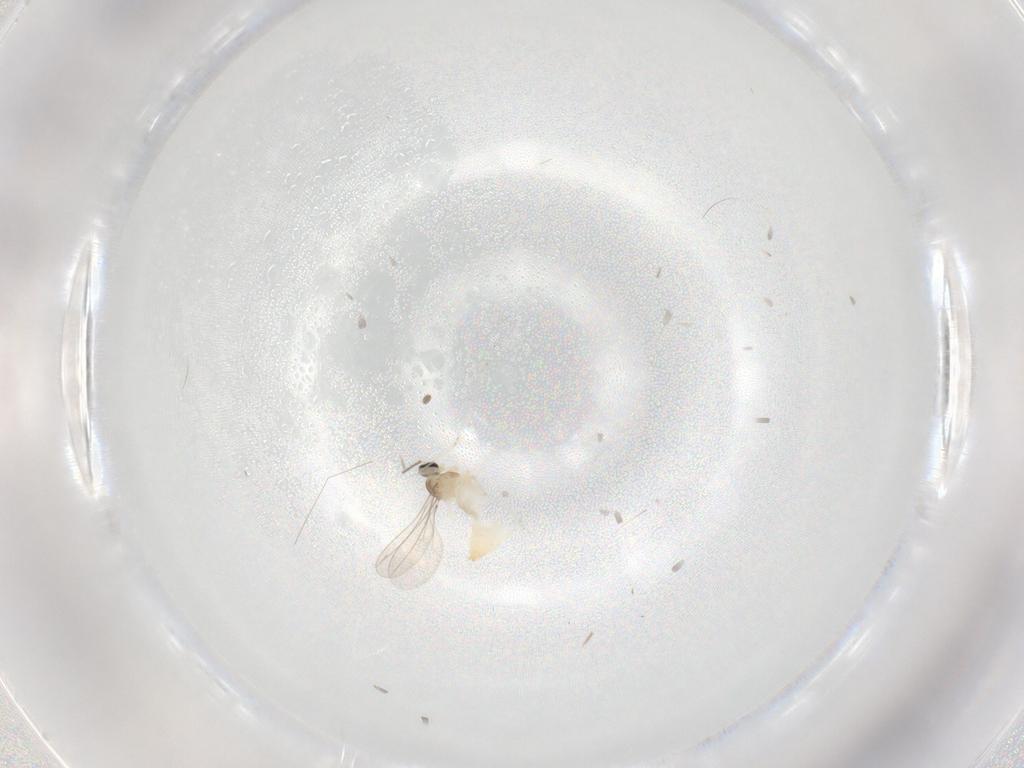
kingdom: Animalia
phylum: Arthropoda
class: Insecta
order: Diptera
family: Cecidomyiidae
